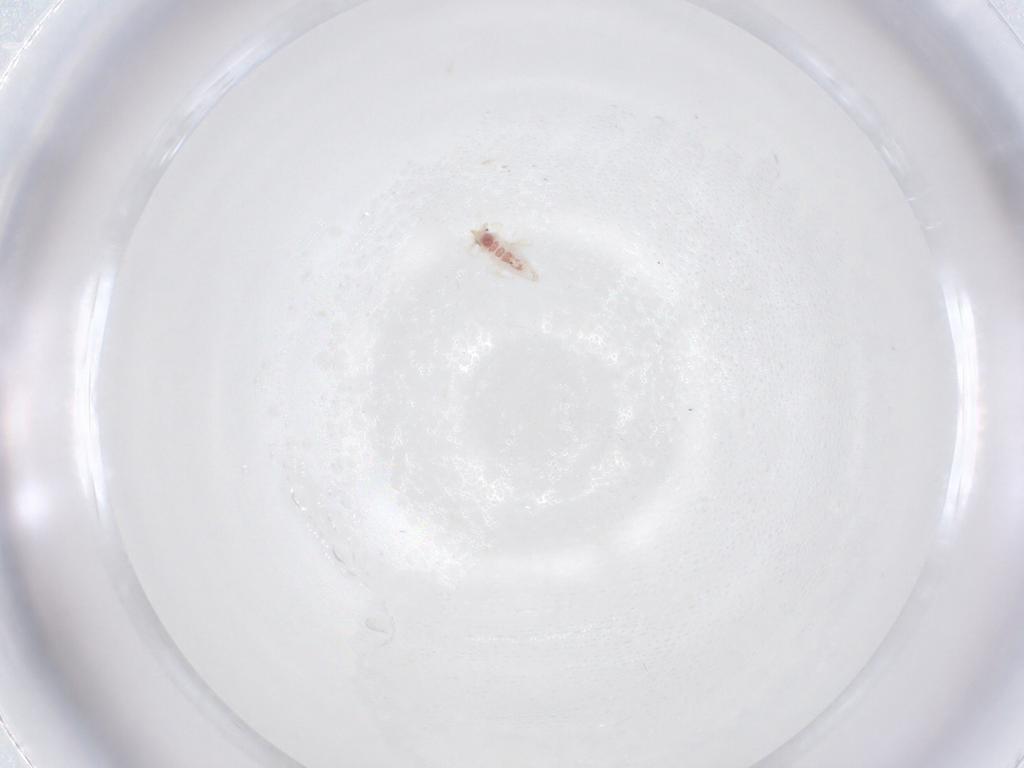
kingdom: Animalia
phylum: Arthropoda
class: Insecta
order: Neuroptera
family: Coniopterygidae
